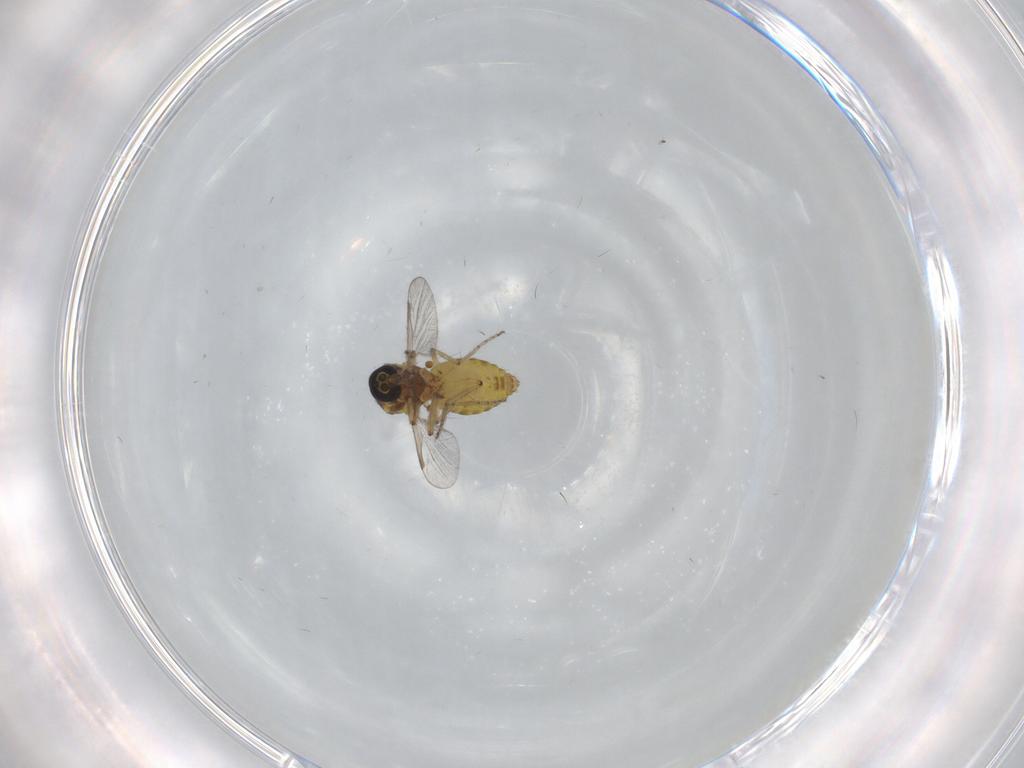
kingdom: Animalia
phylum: Arthropoda
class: Insecta
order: Diptera
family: Ceratopogonidae
